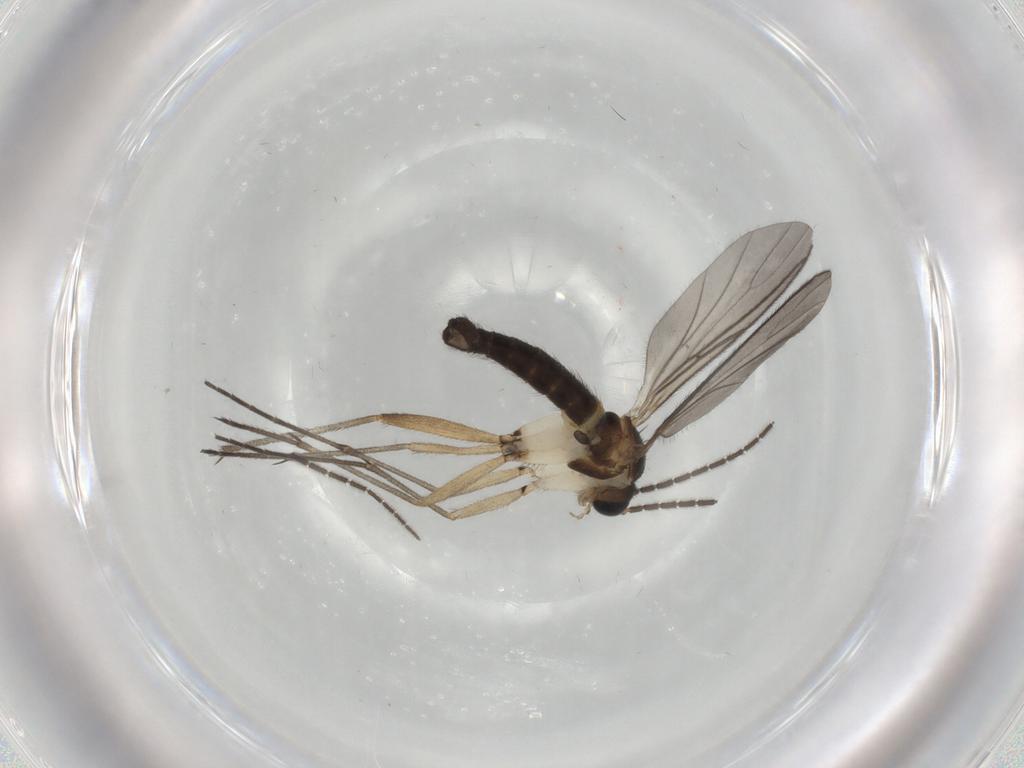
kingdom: Animalia
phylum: Arthropoda
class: Insecta
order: Diptera
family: Sciaridae
